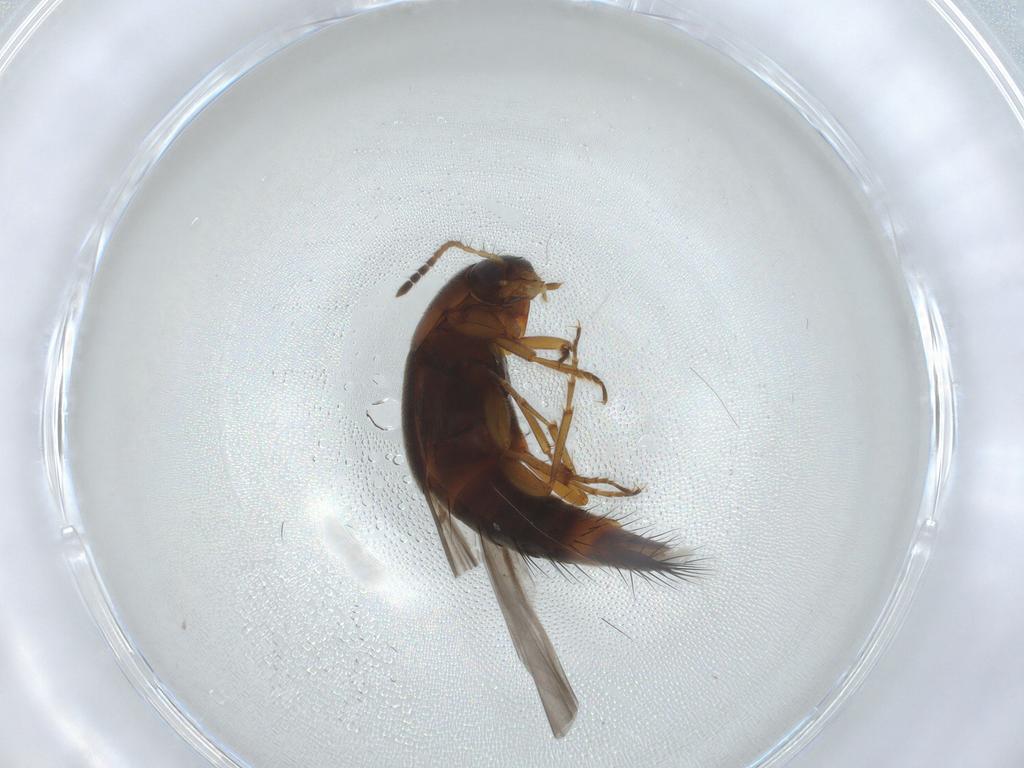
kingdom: Animalia
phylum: Arthropoda
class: Insecta
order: Coleoptera
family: Staphylinidae
